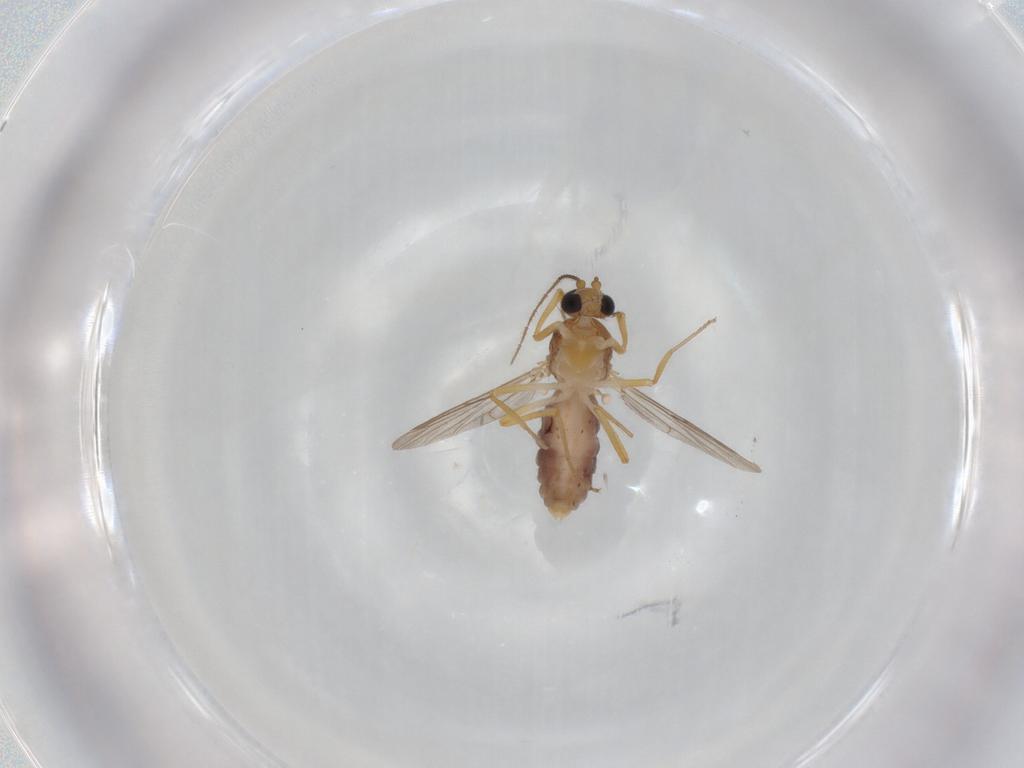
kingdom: Animalia
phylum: Arthropoda
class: Insecta
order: Diptera
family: Ceratopogonidae
